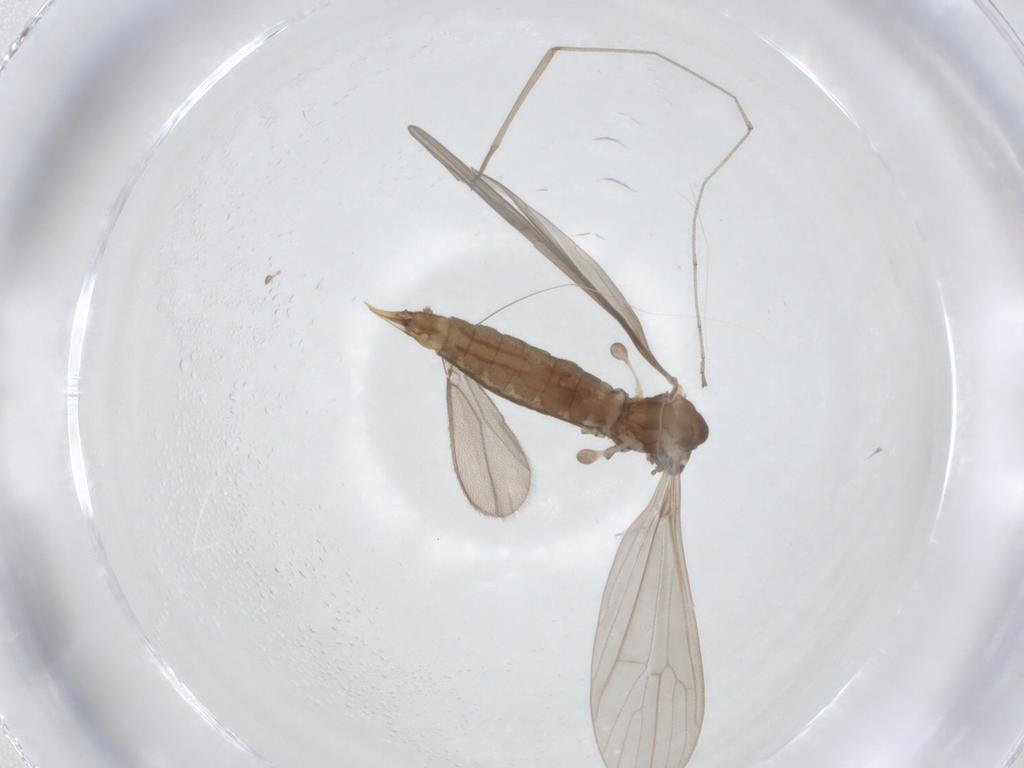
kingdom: Animalia
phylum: Arthropoda
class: Insecta
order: Diptera
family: Limoniidae
